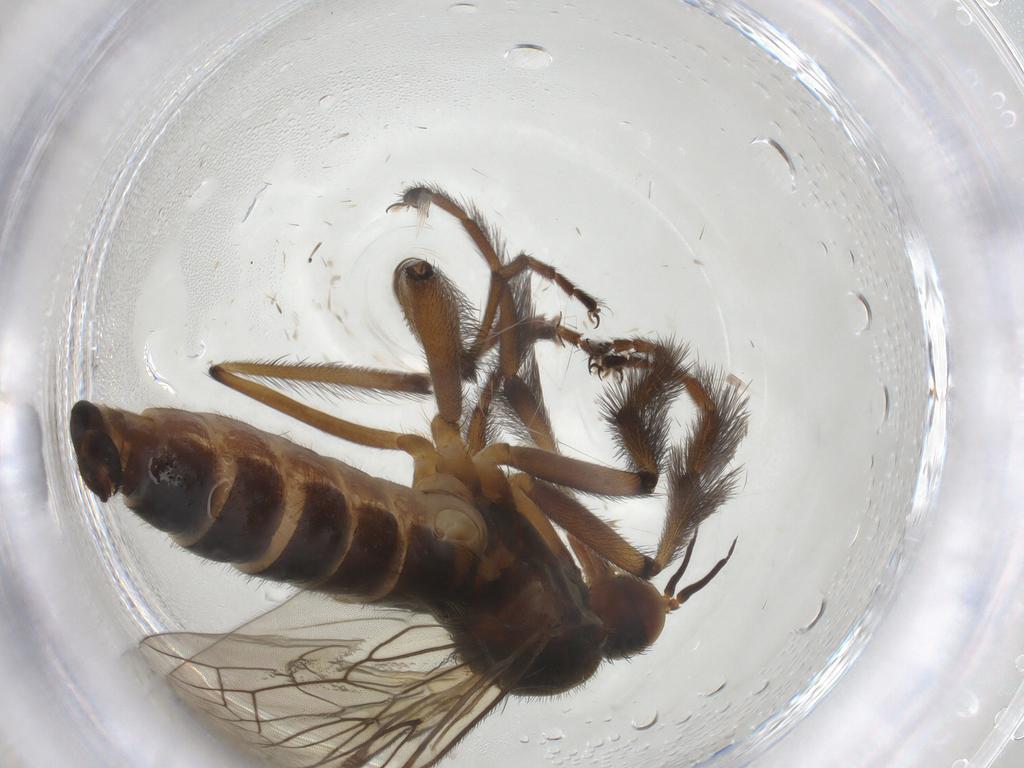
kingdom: Animalia
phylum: Arthropoda
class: Insecta
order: Diptera
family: Empididae
